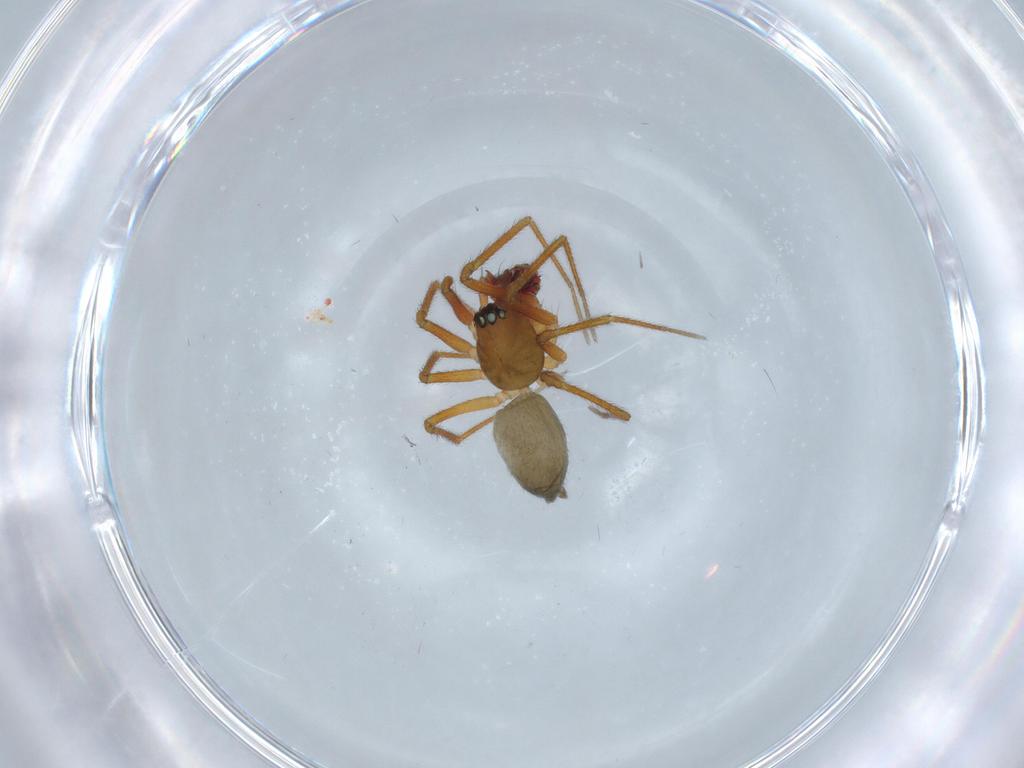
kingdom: Animalia
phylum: Arthropoda
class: Arachnida
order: Araneae
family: Linyphiidae
